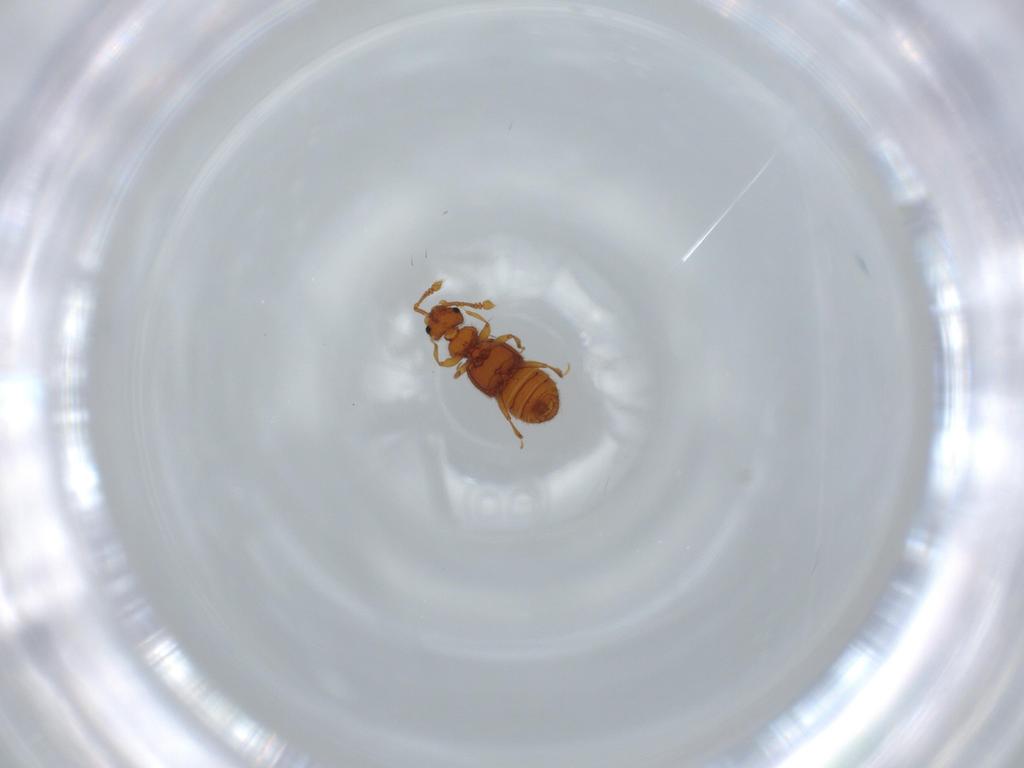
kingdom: Animalia
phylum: Arthropoda
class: Insecta
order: Coleoptera
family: Staphylinidae
